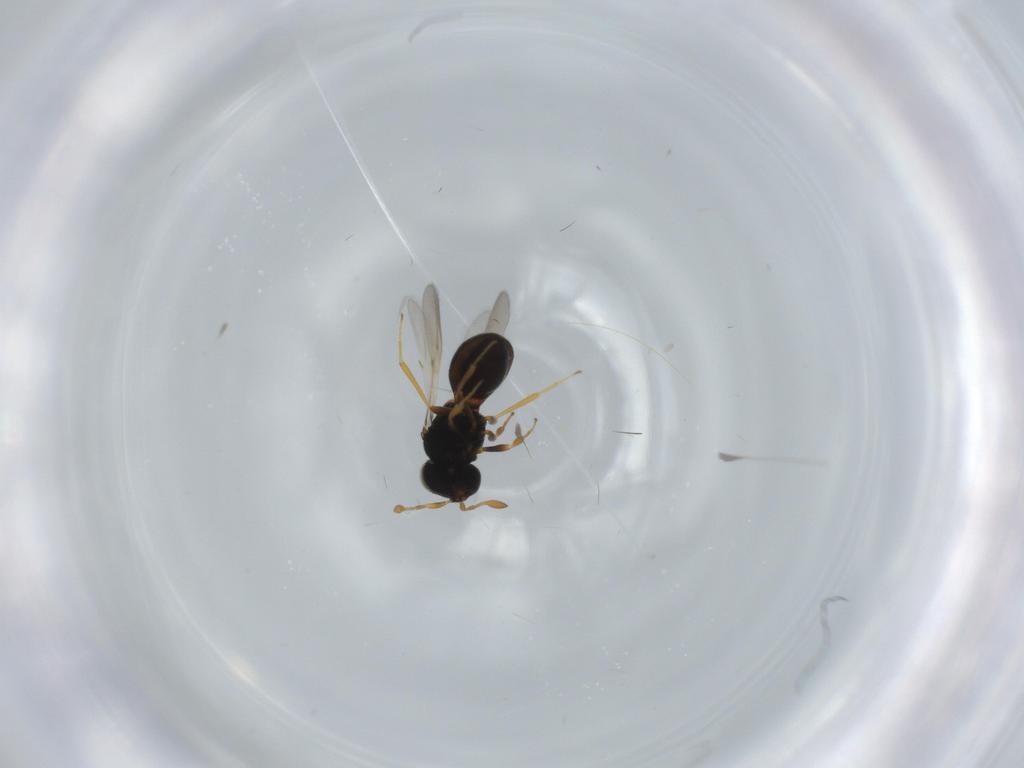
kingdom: Animalia
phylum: Arthropoda
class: Insecta
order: Hymenoptera
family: Scelionidae
